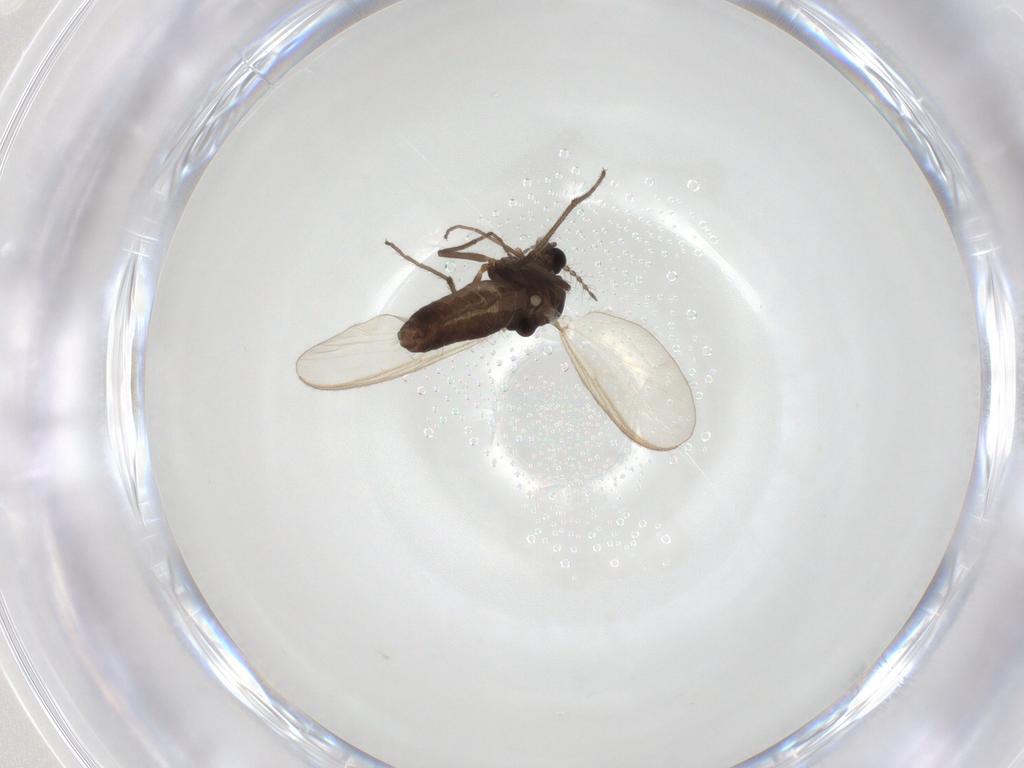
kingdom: Animalia
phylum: Arthropoda
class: Insecta
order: Diptera
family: Chironomidae
